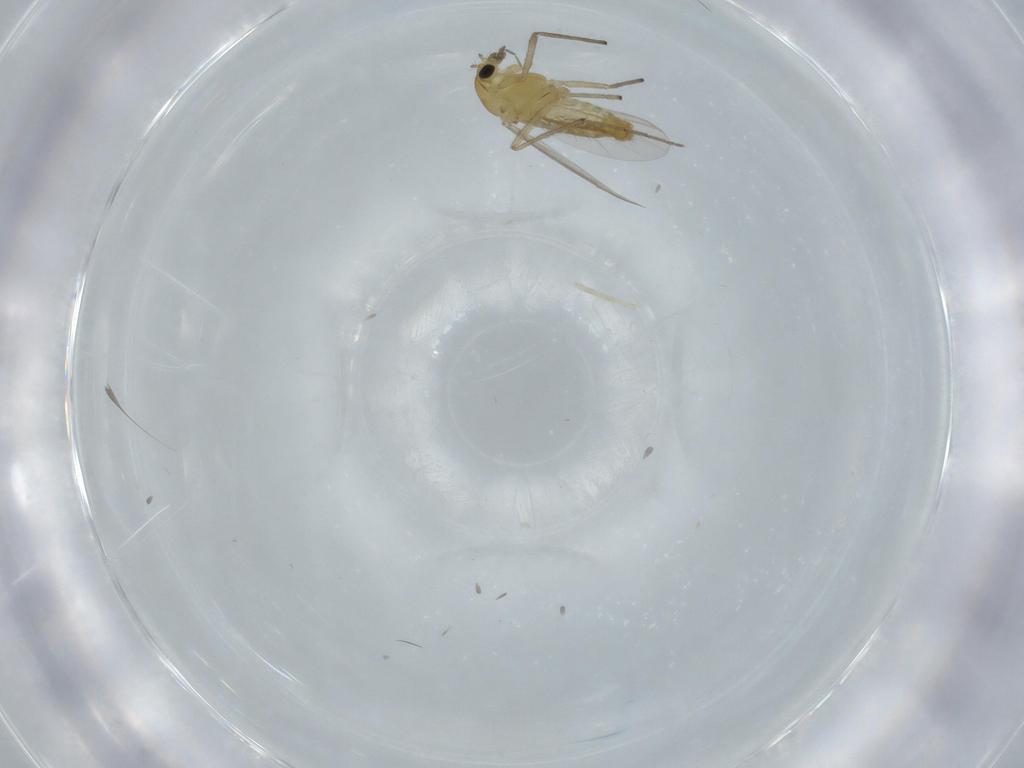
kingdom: Animalia
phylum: Arthropoda
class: Insecta
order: Diptera
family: Chironomidae
